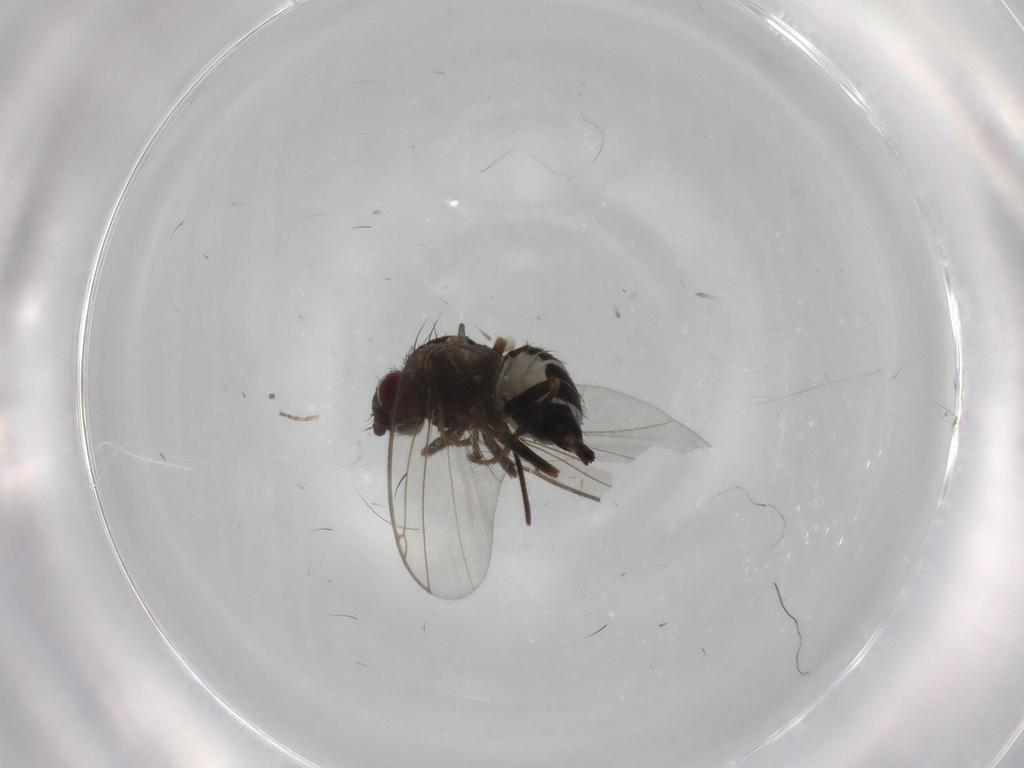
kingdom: Animalia
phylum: Arthropoda
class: Insecta
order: Diptera
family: Agromyzidae
